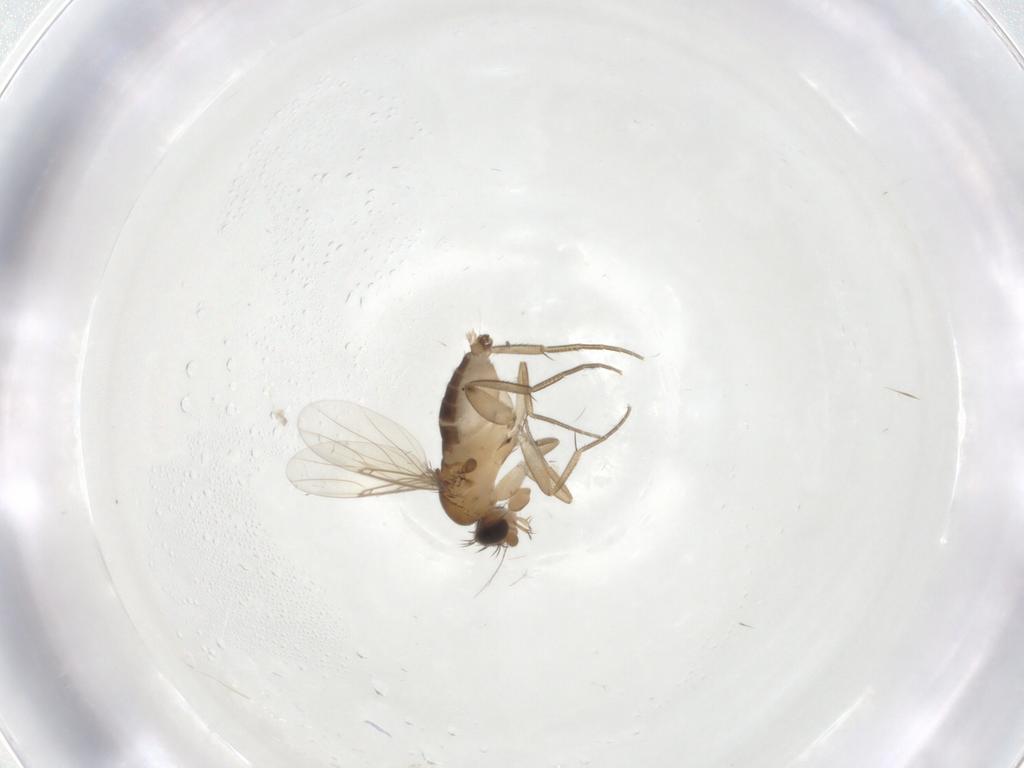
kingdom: Animalia
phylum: Arthropoda
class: Insecta
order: Diptera
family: Phoridae
